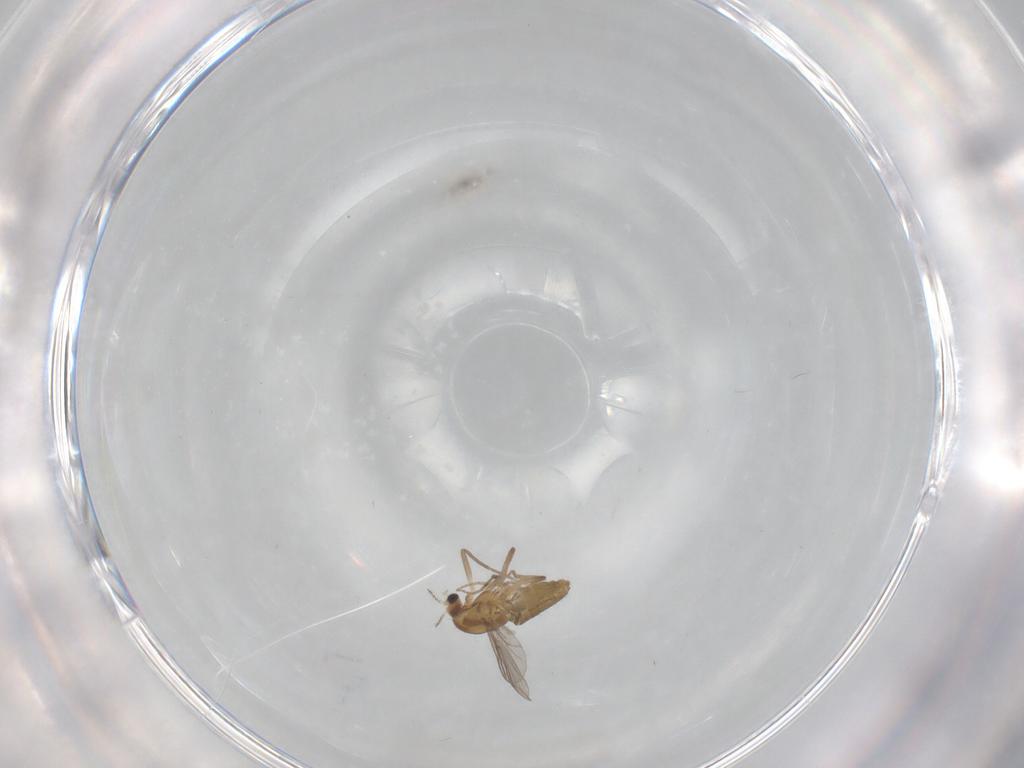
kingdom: Animalia
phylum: Arthropoda
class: Insecta
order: Diptera
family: Chironomidae
